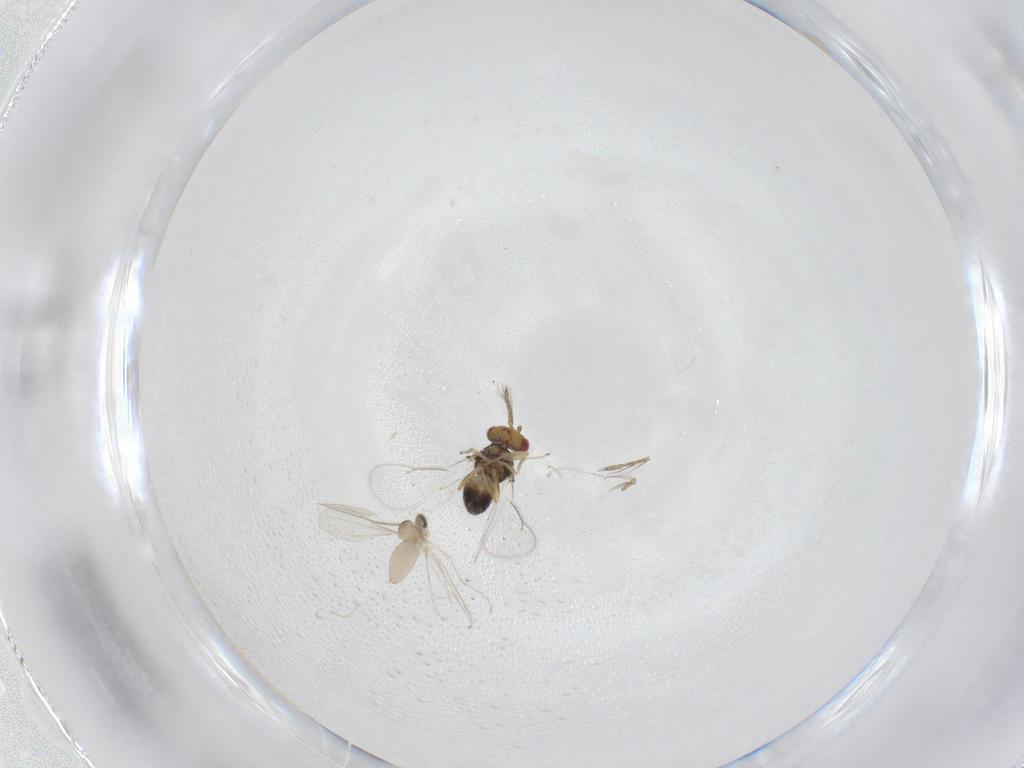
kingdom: Animalia
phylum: Arthropoda
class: Insecta
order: Hymenoptera
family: Eulophidae
